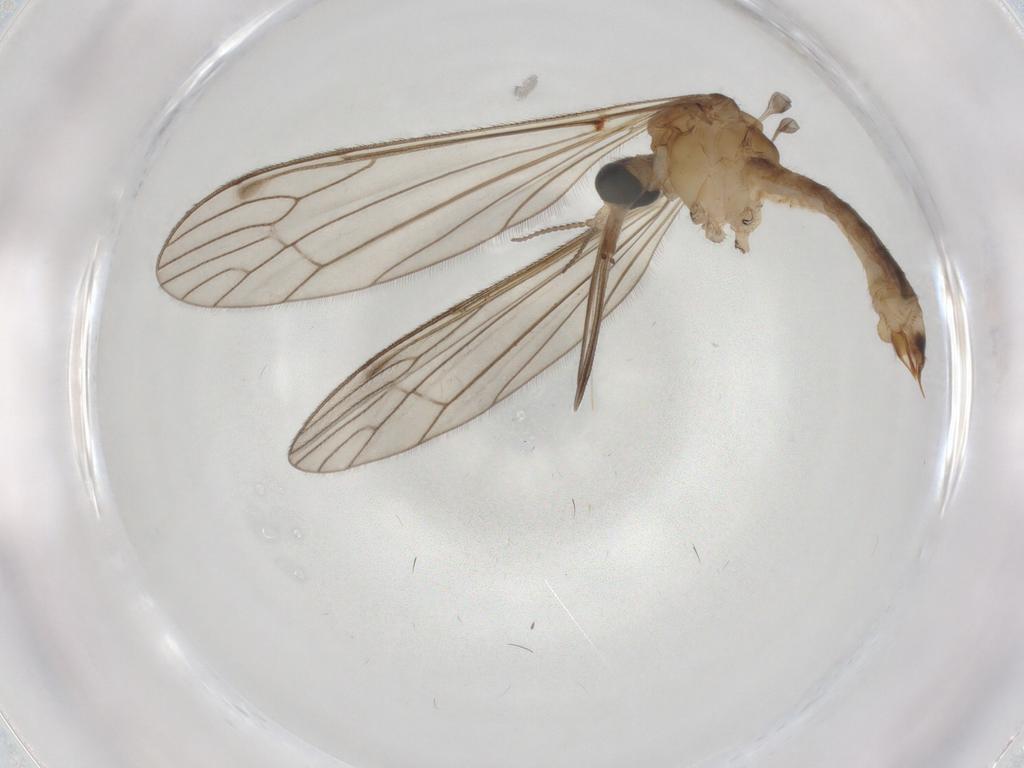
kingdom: Animalia
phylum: Arthropoda
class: Insecta
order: Diptera
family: Limoniidae
